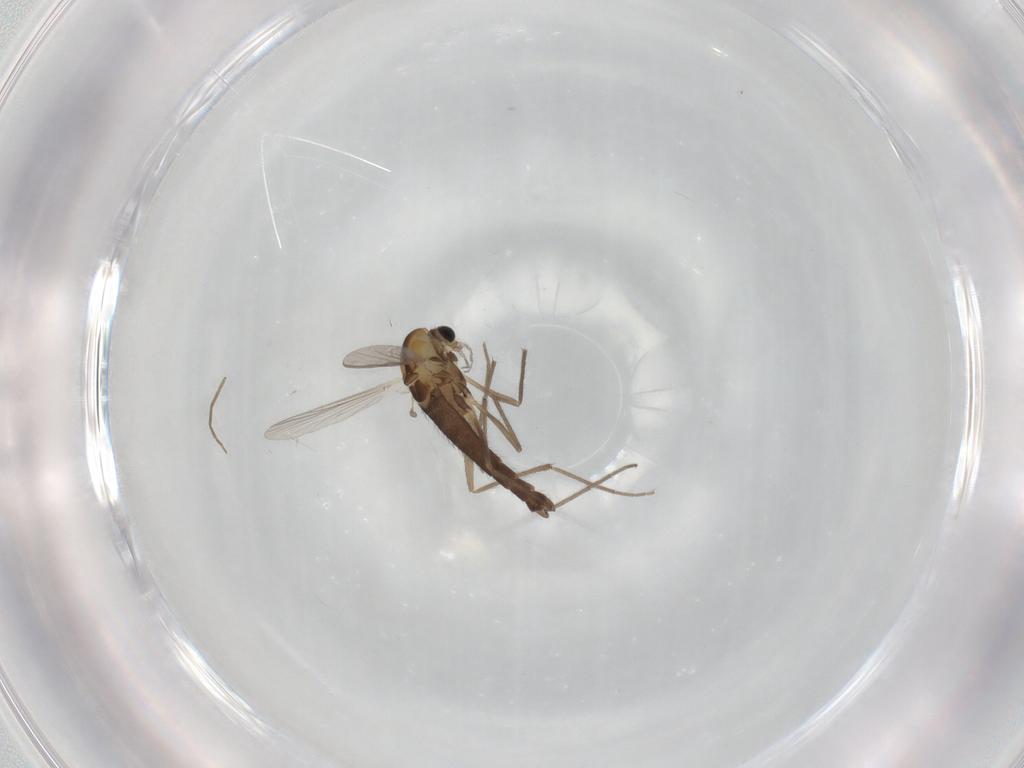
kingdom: Animalia
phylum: Arthropoda
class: Insecta
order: Diptera
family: Chironomidae
